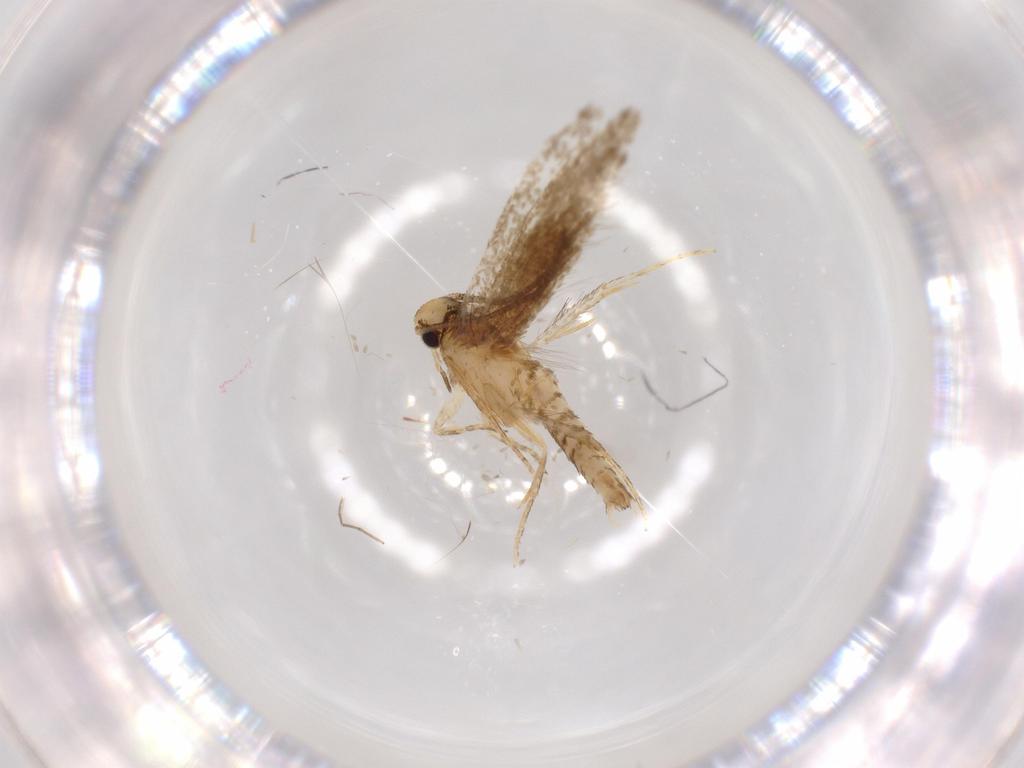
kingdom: Animalia
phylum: Arthropoda
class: Insecta
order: Lepidoptera
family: Tineidae
